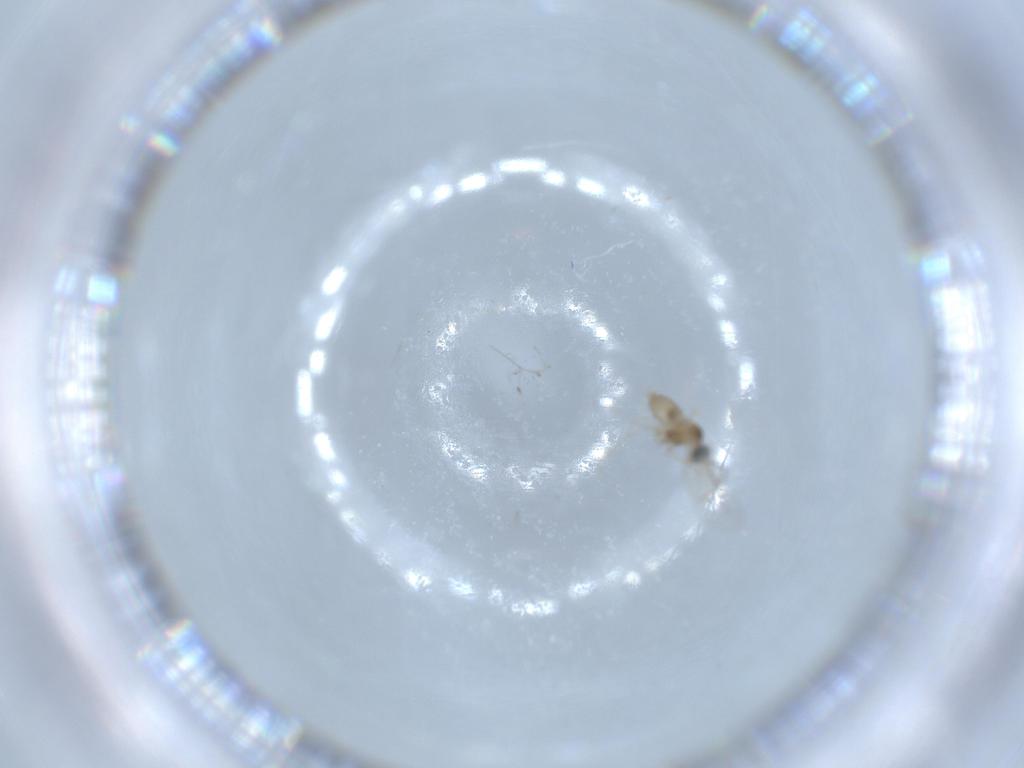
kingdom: Animalia
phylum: Arthropoda
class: Insecta
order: Diptera
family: Cecidomyiidae
